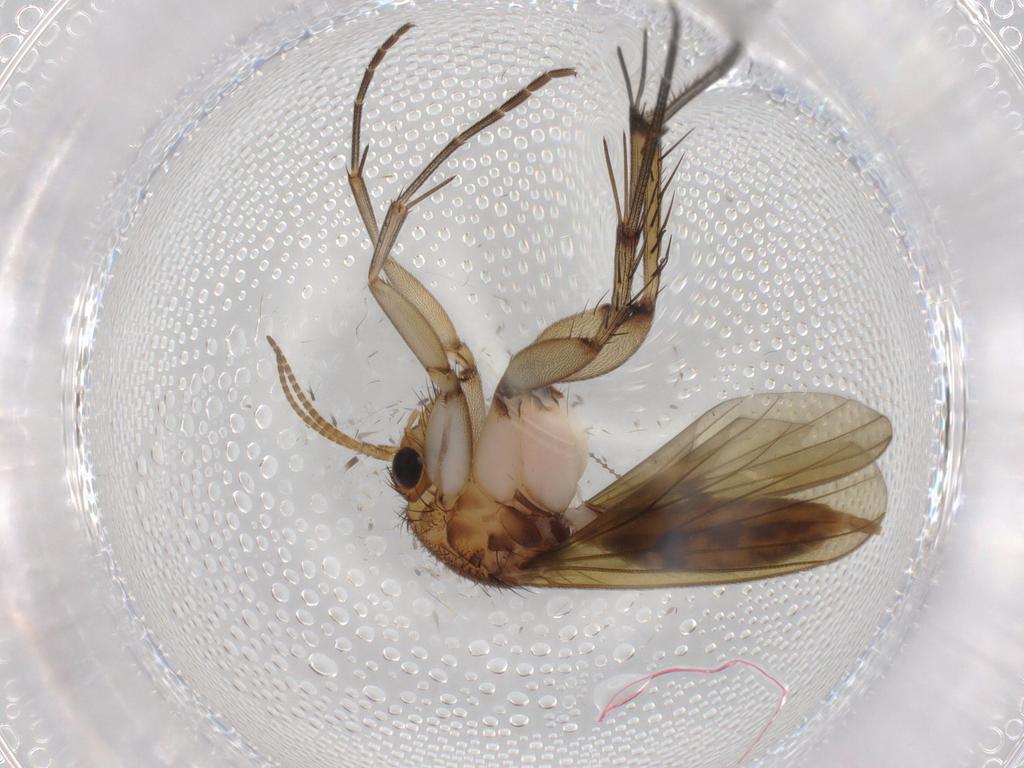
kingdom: Animalia
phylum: Arthropoda
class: Insecta
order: Diptera
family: Mycetophilidae
